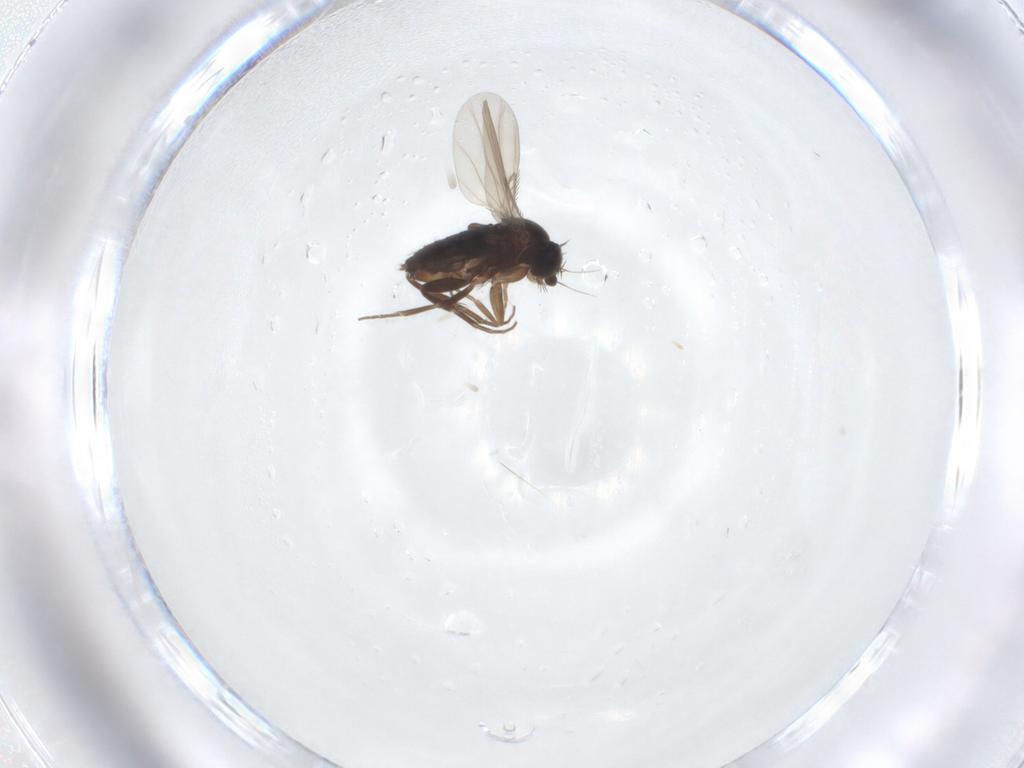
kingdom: Animalia
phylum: Arthropoda
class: Insecta
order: Diptera
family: Phoridae
